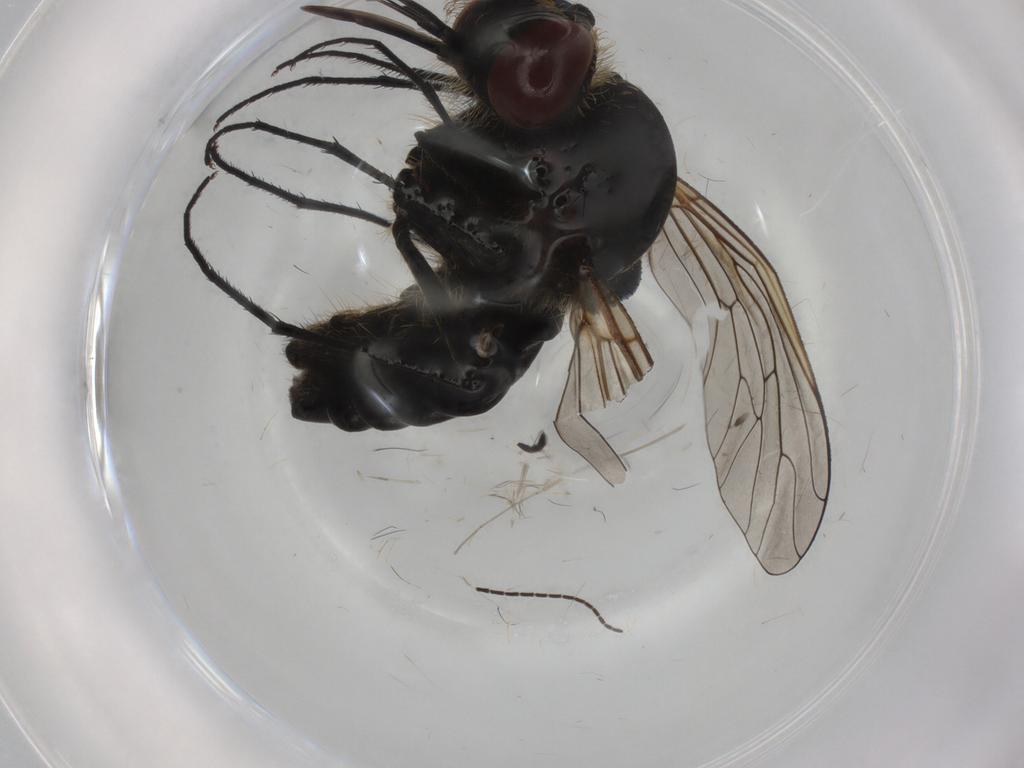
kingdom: Animalia
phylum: Arthropoda
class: Insecta
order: Diptera
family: Bombyliidae
